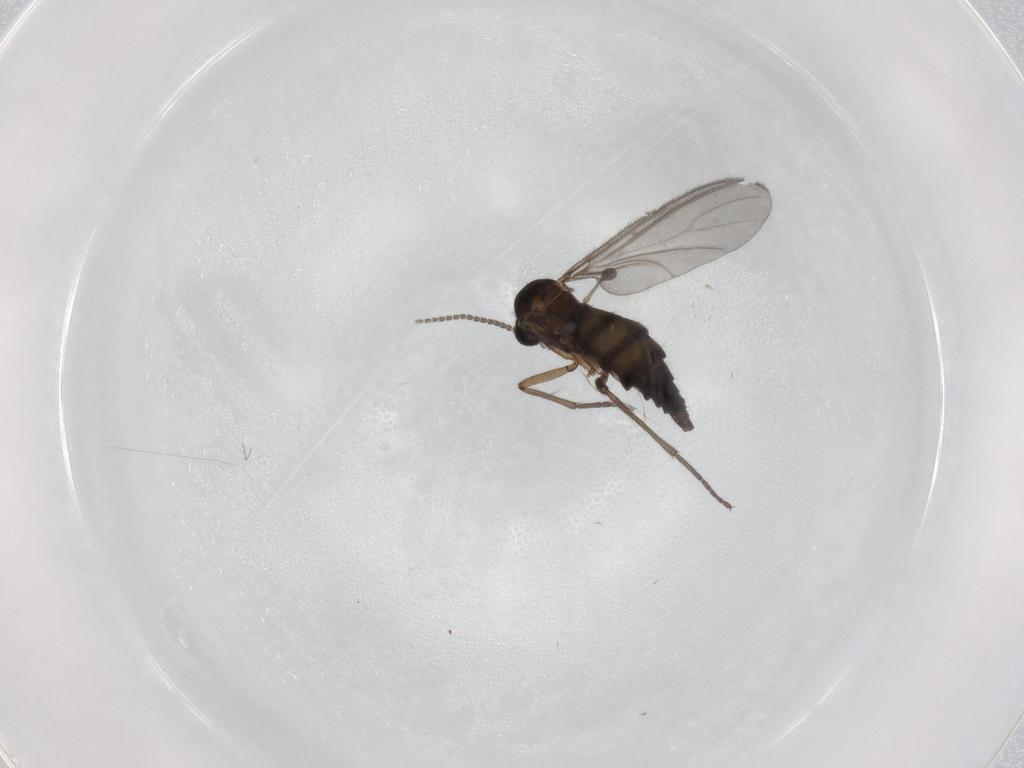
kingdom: Animalia
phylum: Arthropoda
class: Insecta
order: Diptera
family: Sciaridae
